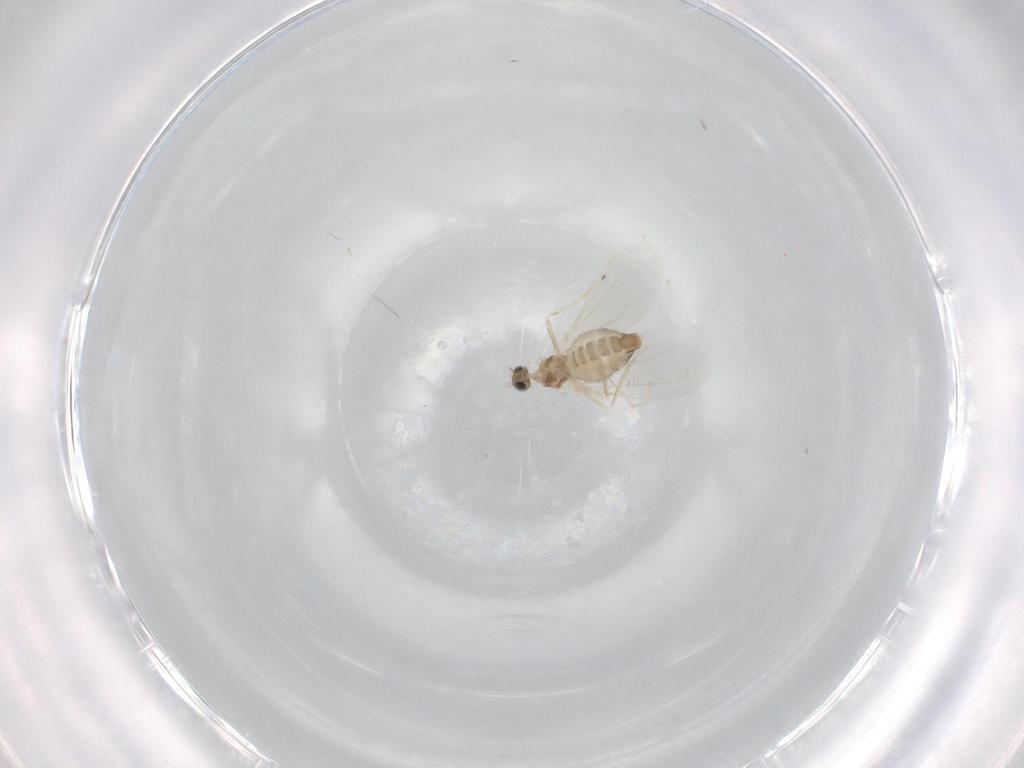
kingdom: Animalia
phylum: Arthropoda
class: Insecta
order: Diptera
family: Cecidomyiidae
